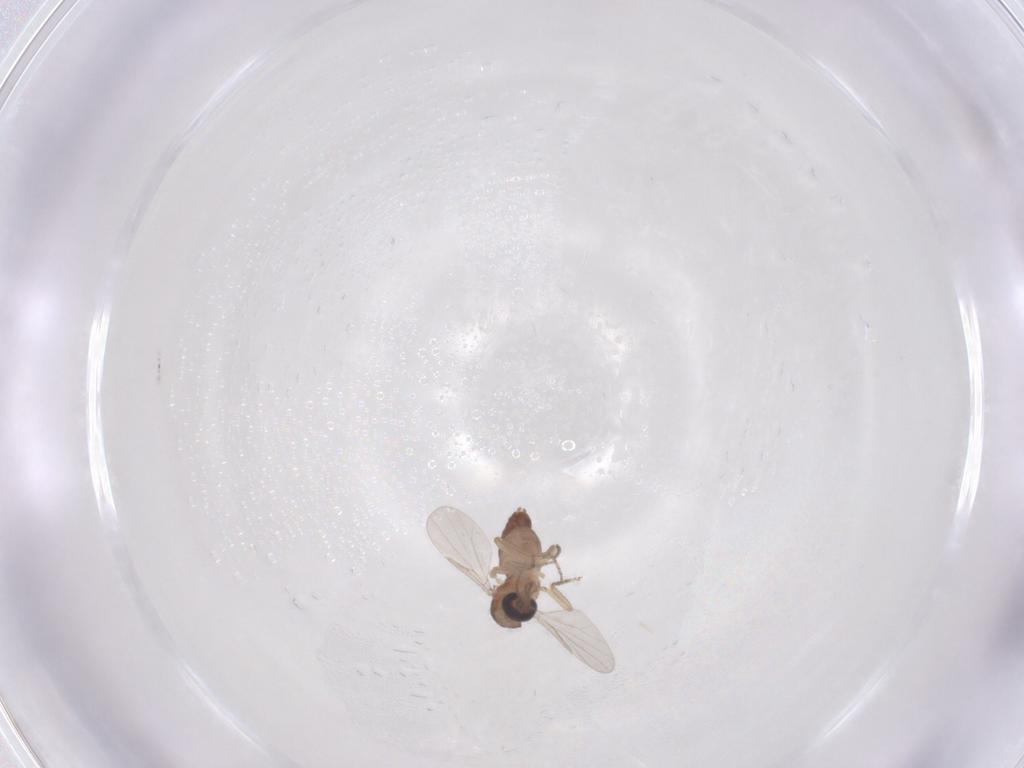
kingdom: Animalia
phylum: Arthropoda
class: Insecta
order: Diptera
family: Ceratopogonidae
